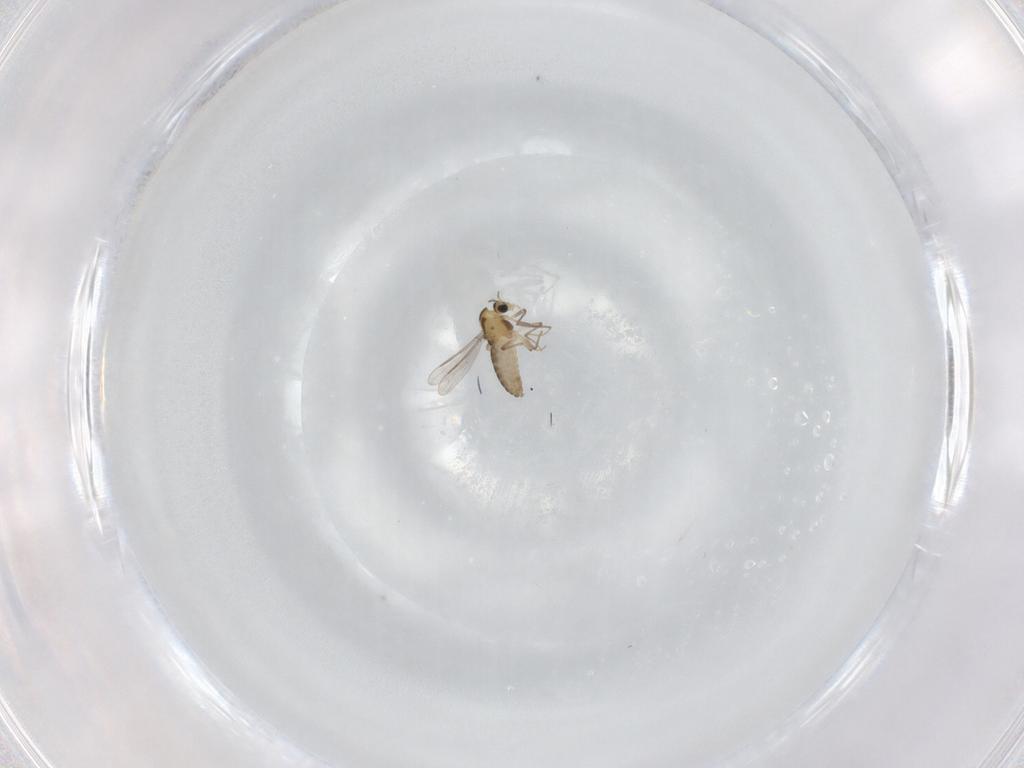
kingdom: Animalia
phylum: Arthropoda
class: Insecta
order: Diptera
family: Chironomidae
